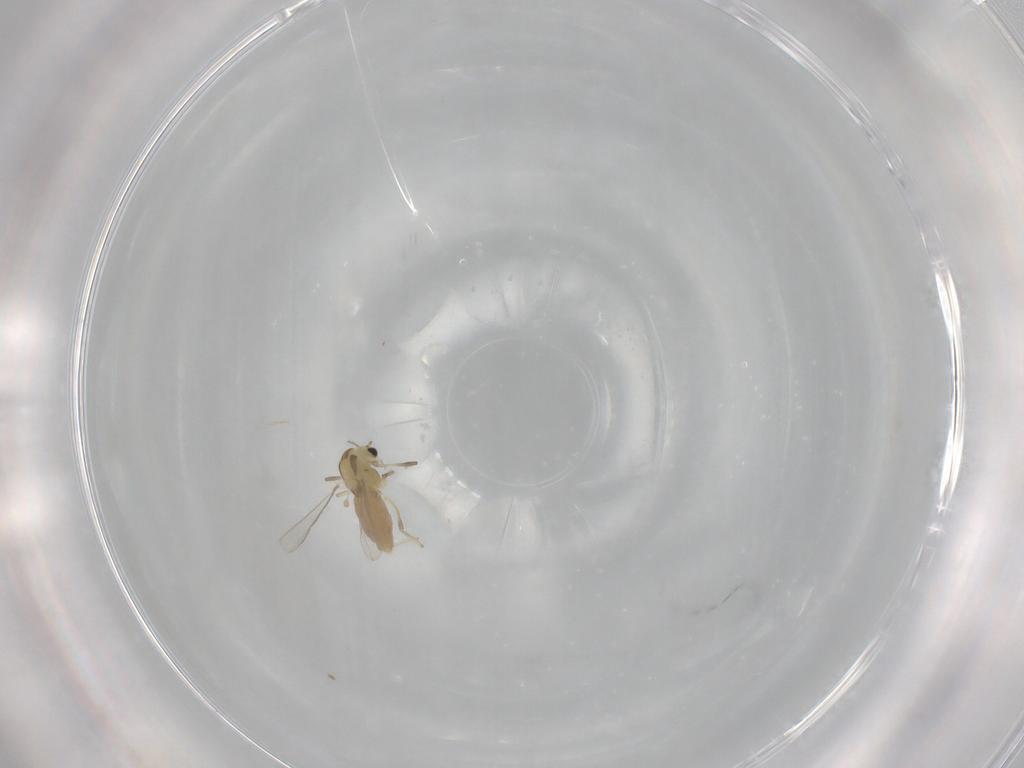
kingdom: Animalia
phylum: Arthropoda
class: Insecta
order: Diptera
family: Chironomidae
